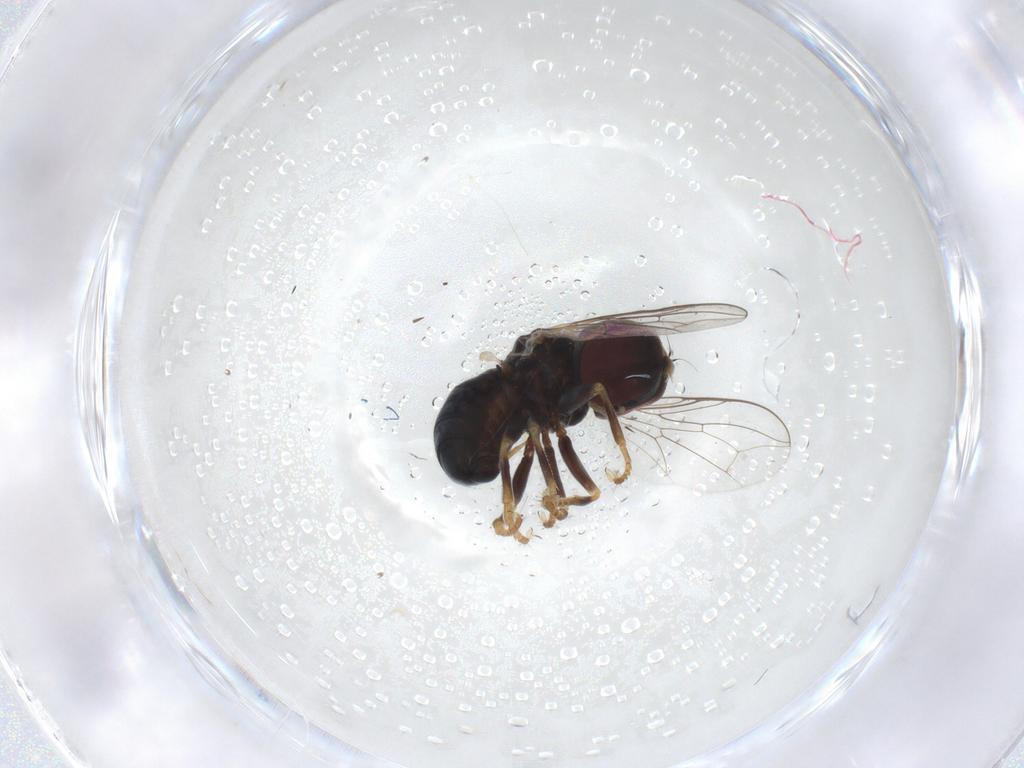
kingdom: Animalia
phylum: Arthropoda
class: Insecta
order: Diptera
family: Pipunculidae
